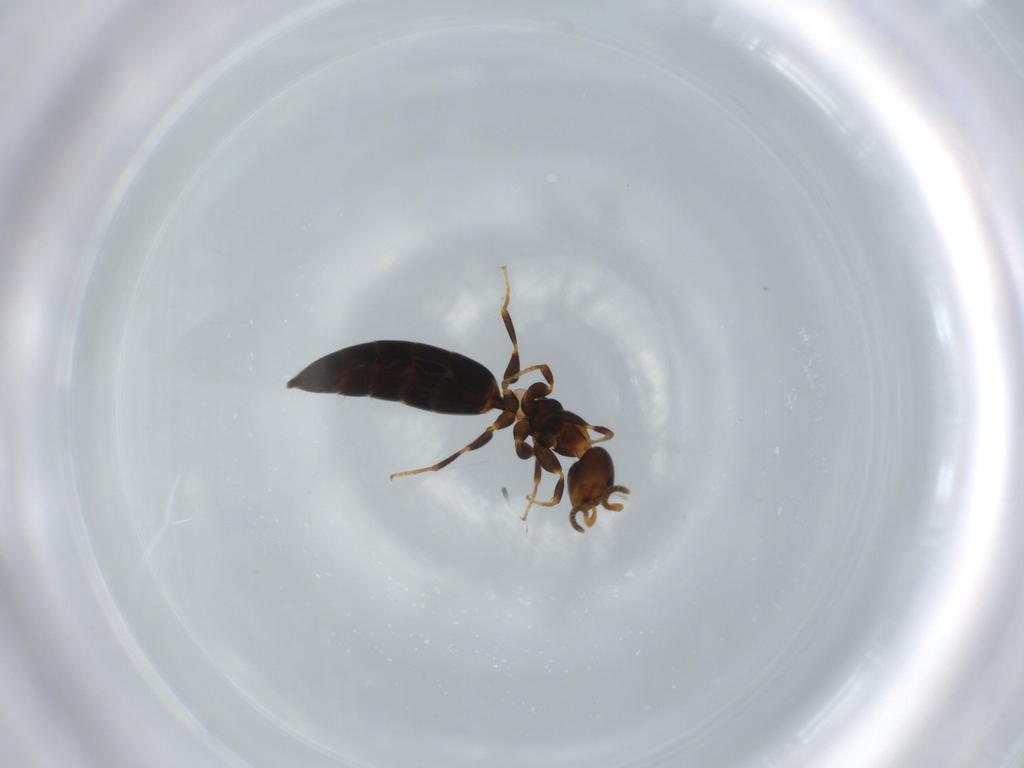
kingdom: Animalia
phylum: Arthropoda
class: Insecta
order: Hymenoptera
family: Bethylidae
